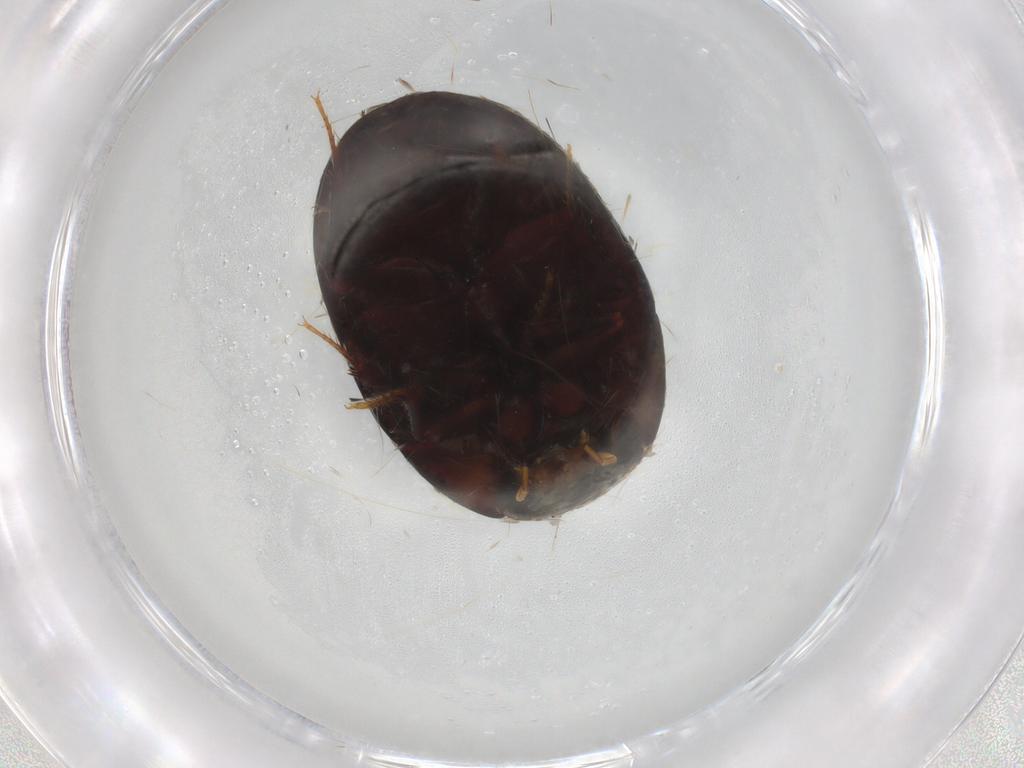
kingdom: Animalia
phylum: Arthropoda
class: Insecta
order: Coleoptera
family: Hydrophilidae
